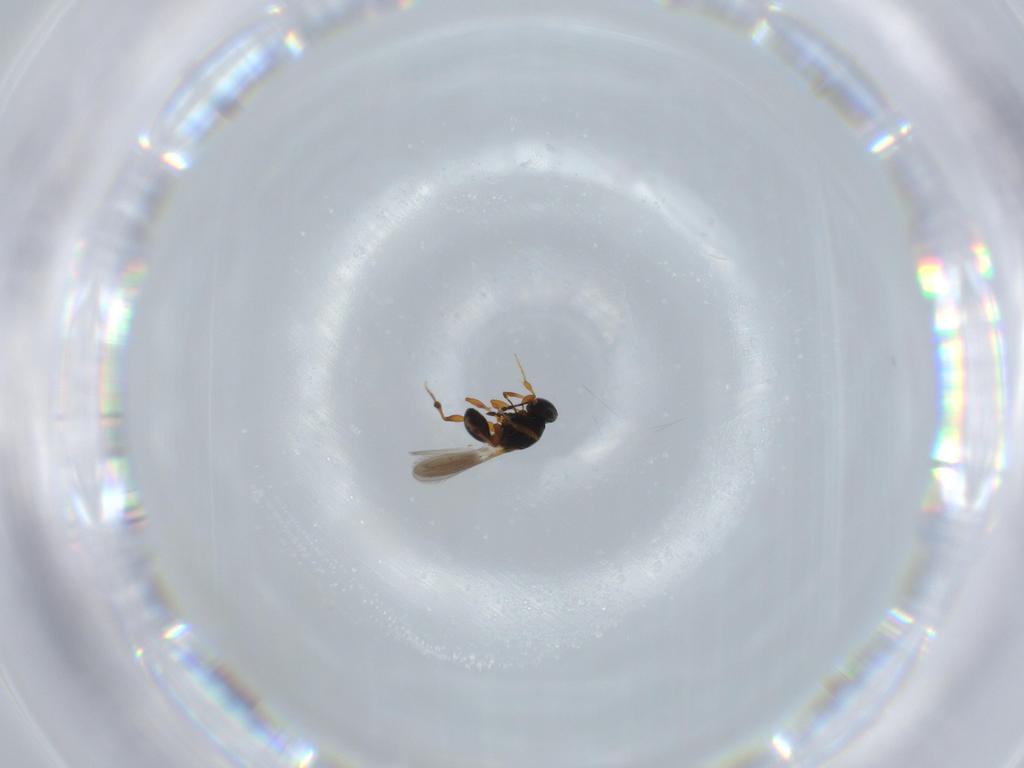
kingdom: Animalia
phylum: Arthropoda
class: Insecta
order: Hymenoptera
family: Platygastridae
